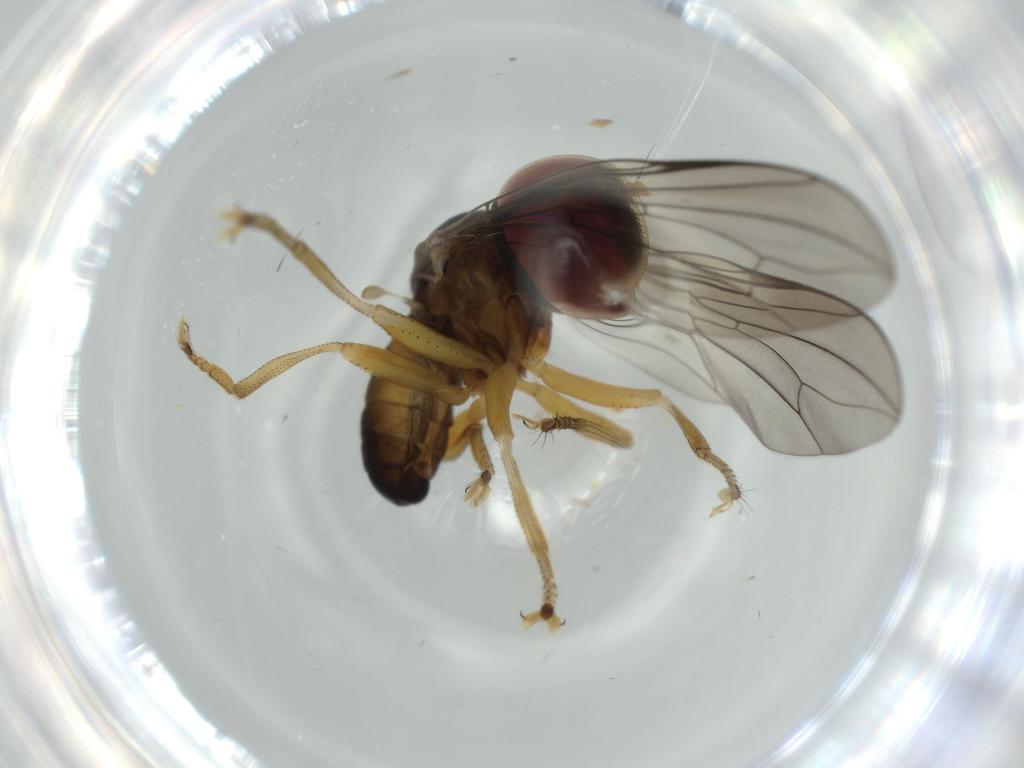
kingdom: Animalia
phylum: Arthropoda
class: Insecta
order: Diptera
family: Pipunculidae
